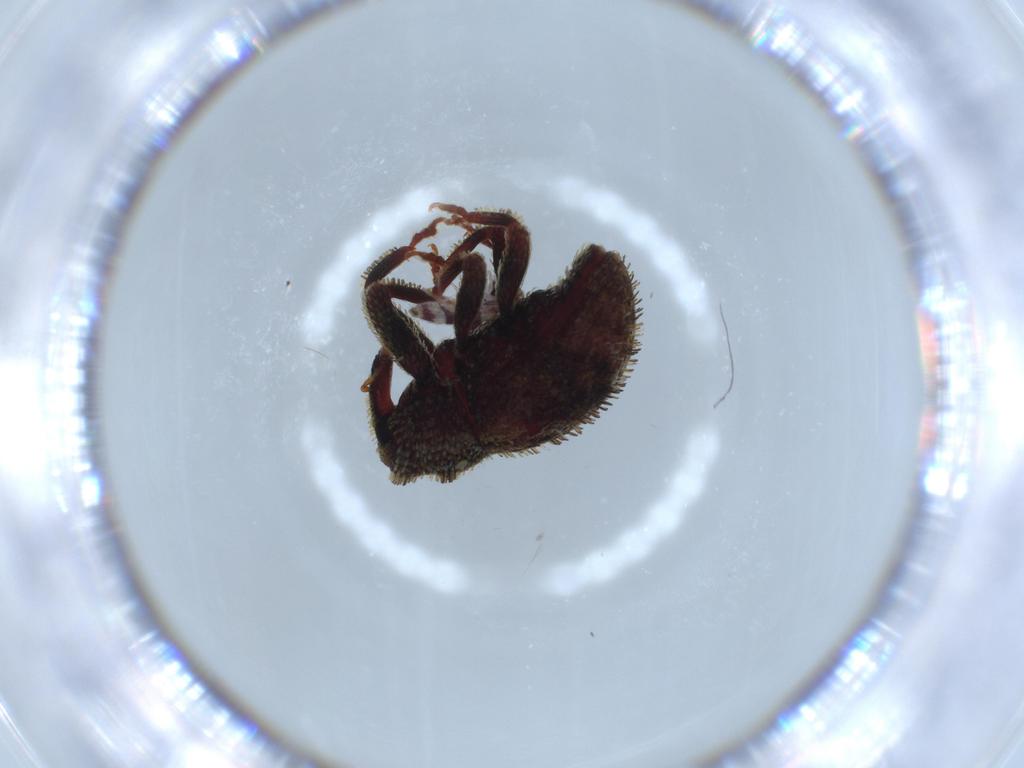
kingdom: Animalia
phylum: Arthropoda
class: Insecta
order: Coleoptera
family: Curculionidae
